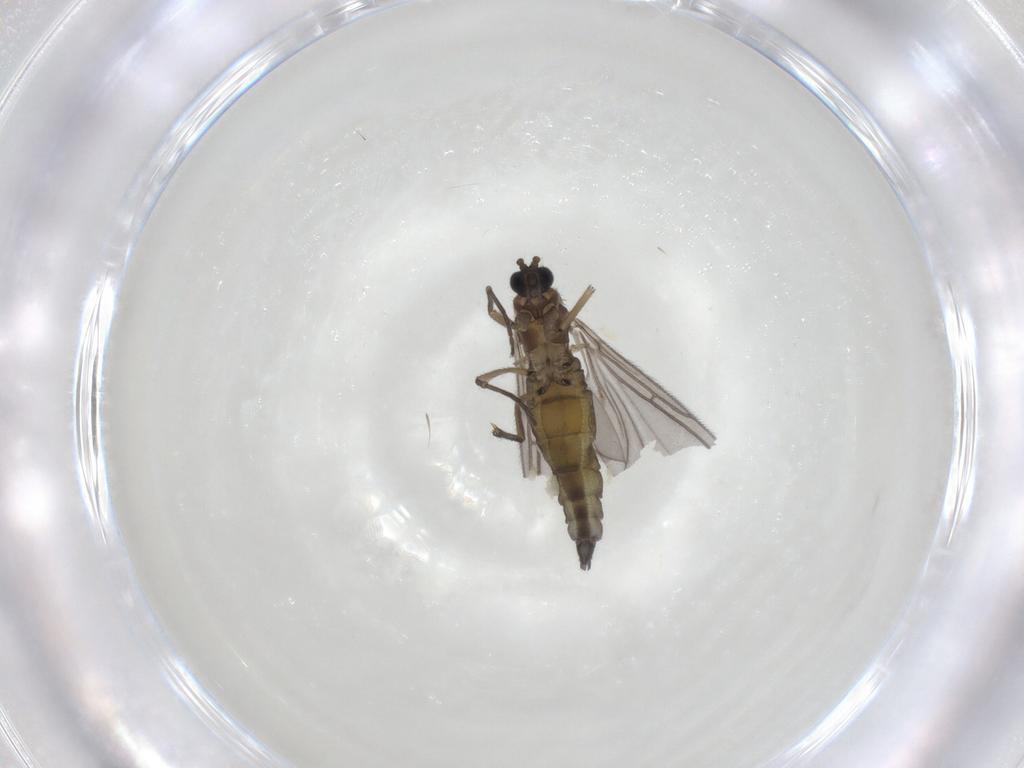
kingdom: Animalia
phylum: Arthropoda
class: Insecta
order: Diptera
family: Sciaridae
